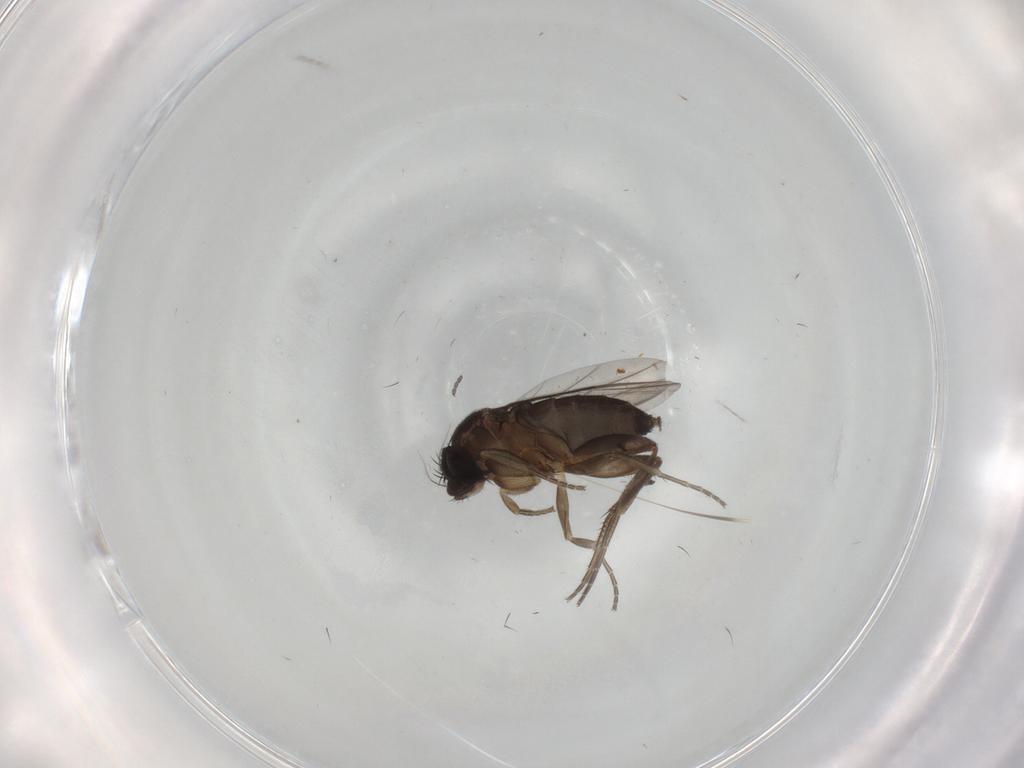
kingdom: Animalia
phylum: Arthropoda
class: Insecta
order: Diptera
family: Phoridae
